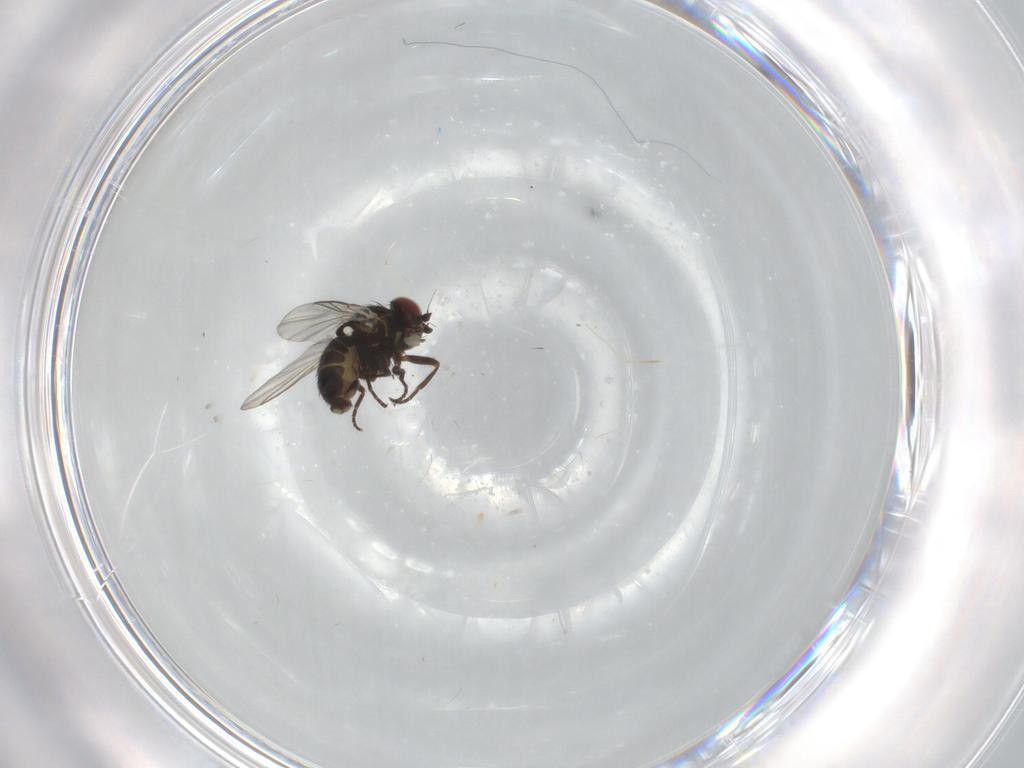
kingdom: Animalia
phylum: Arthropoda
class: Insecta
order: Diptera
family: Agromyzidae
